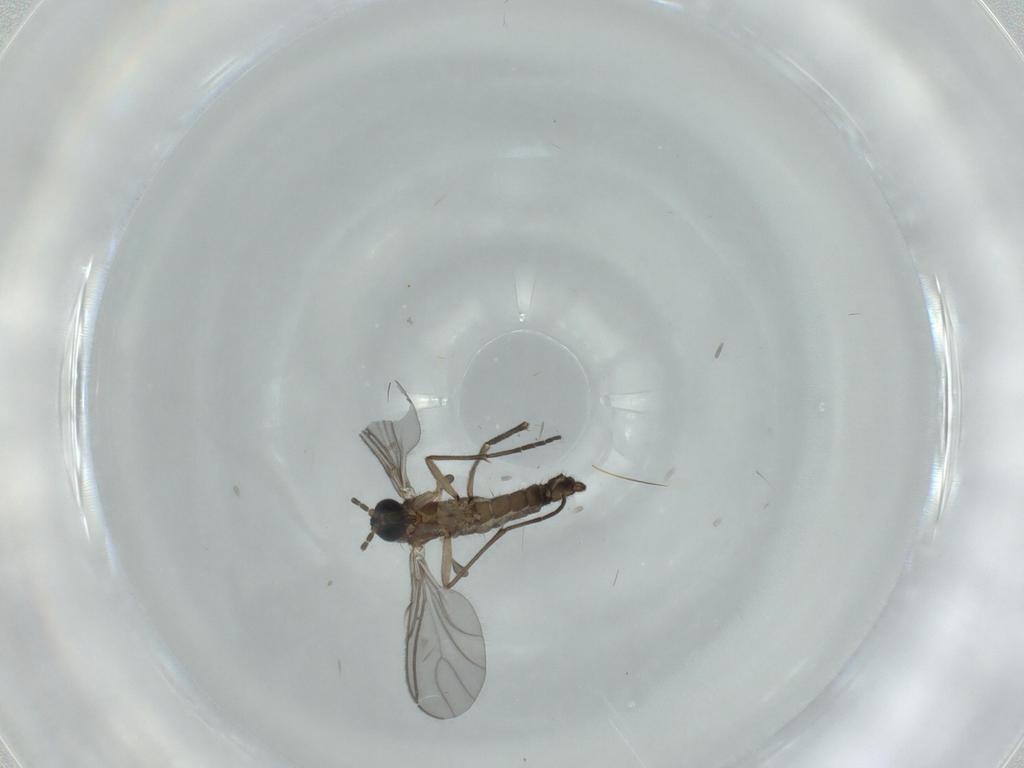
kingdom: Animalia
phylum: Arthropoda
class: Insecta
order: Diptera
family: Sciaridae
